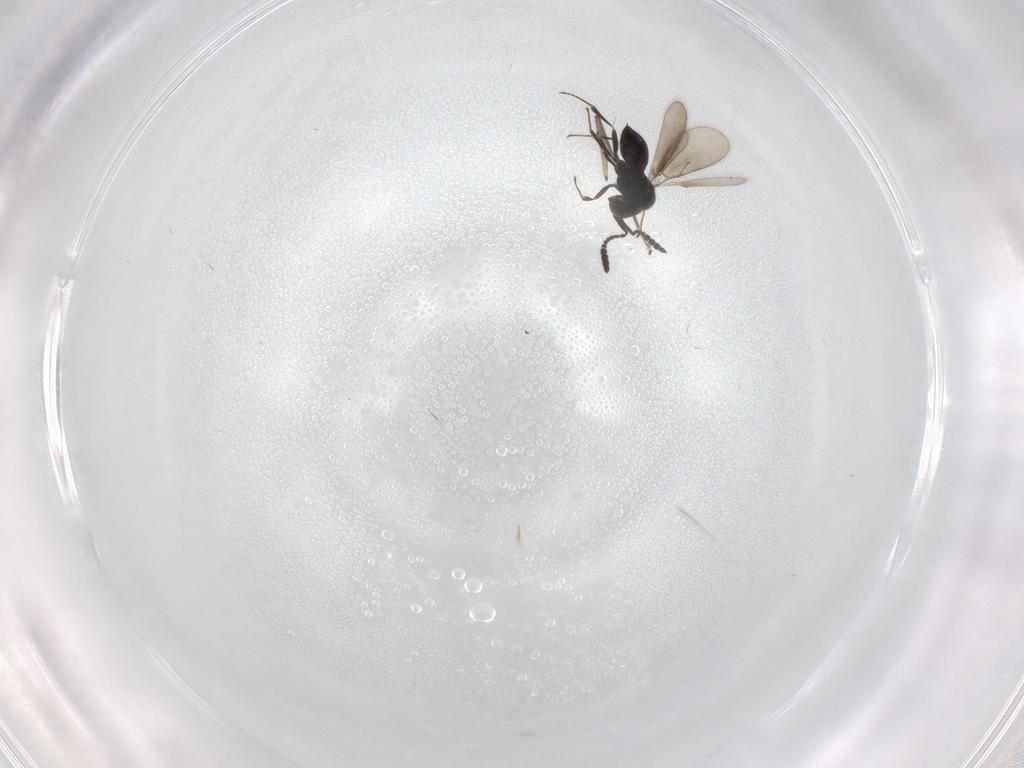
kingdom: Animalia
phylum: Arthropoda
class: Insecta
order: Hymenoptera
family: Scelionidae
